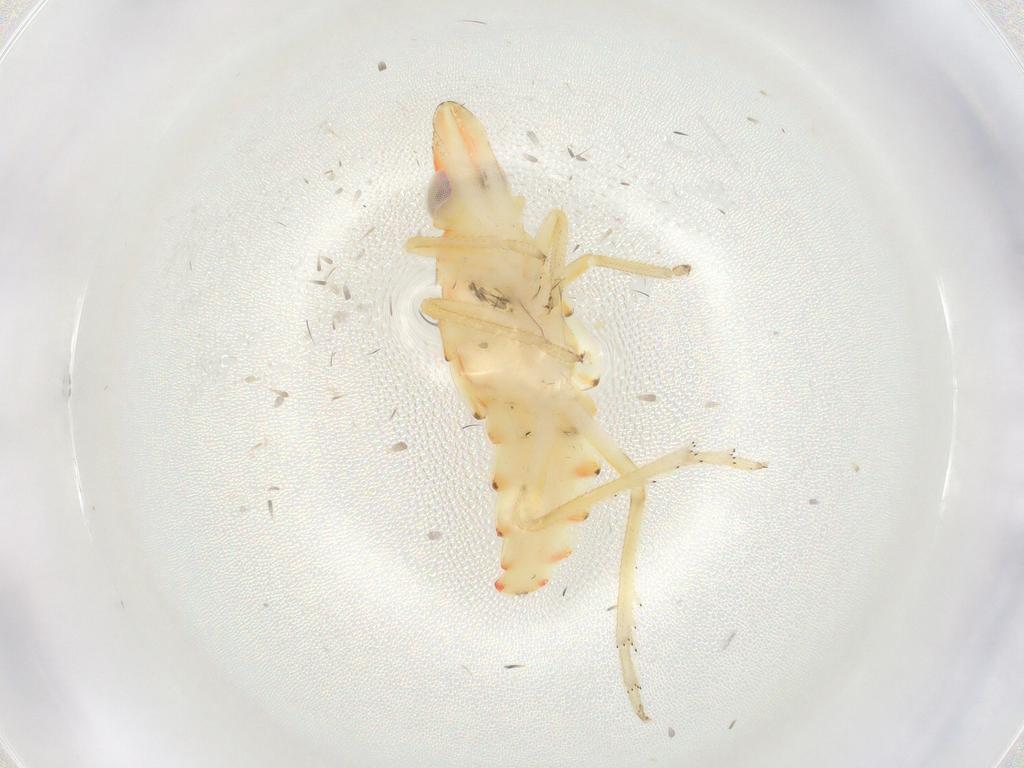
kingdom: Animalia
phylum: Arthropoda
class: Insecta
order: Hemiptera
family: Tropiduchidae
